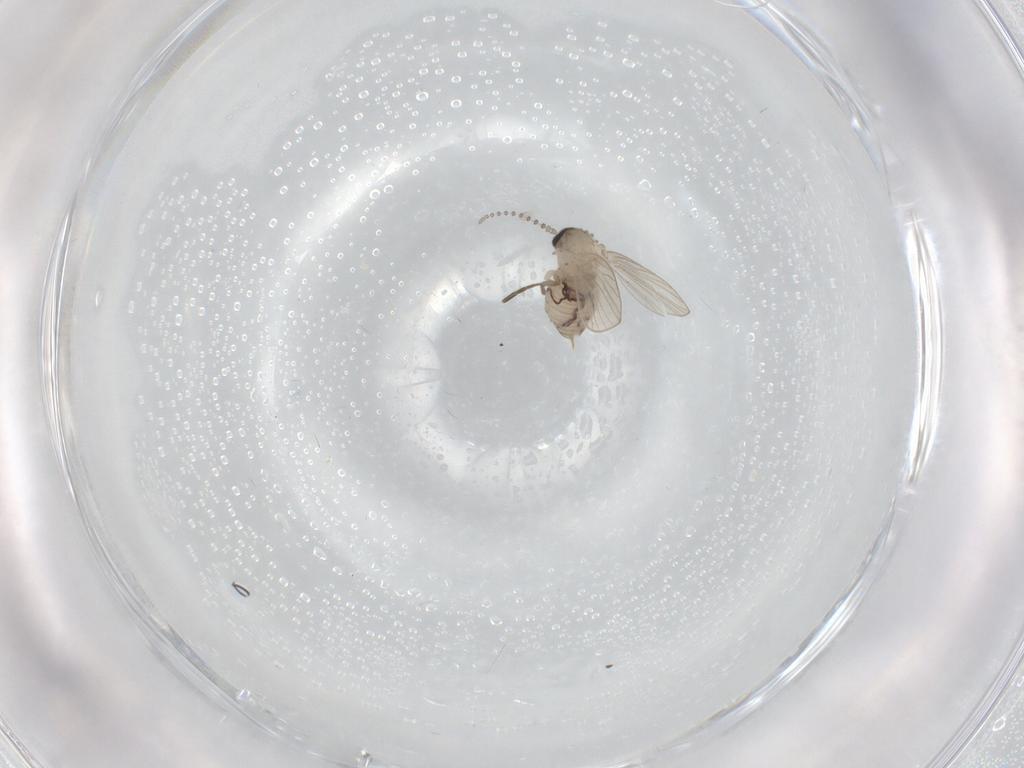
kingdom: Animalia
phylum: Arthropoda
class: Insecta
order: Diptera
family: Psychodidae
